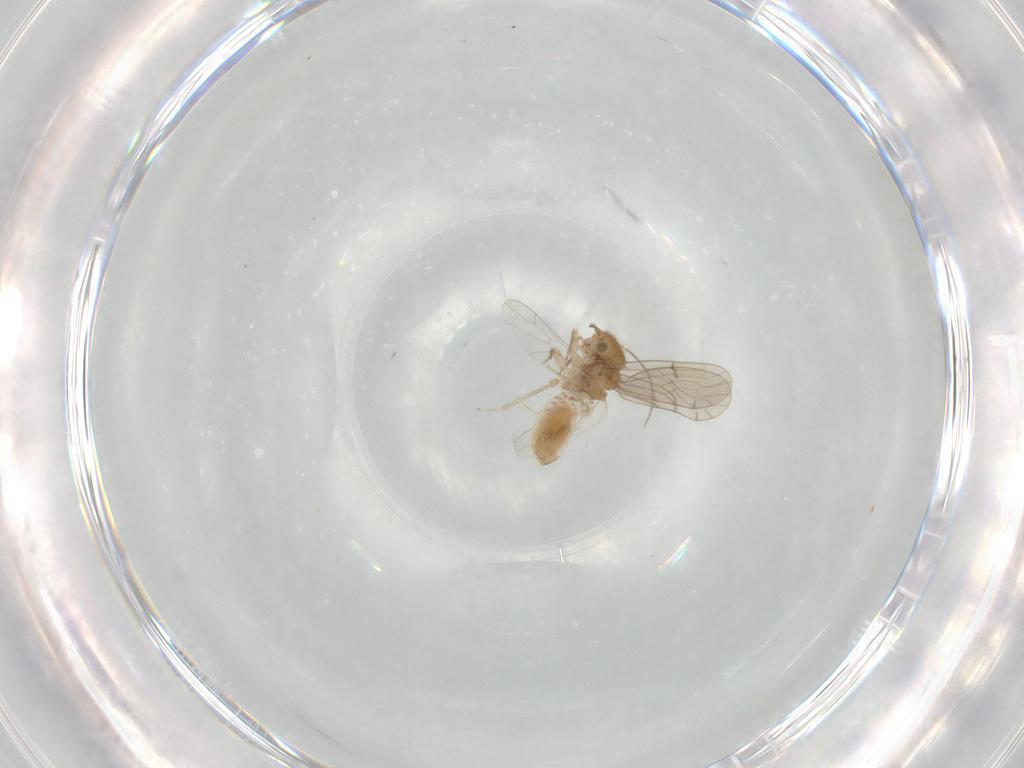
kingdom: Animalia
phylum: Arthropoda
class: Insecta
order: Psocodea
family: Ectopsocidae
